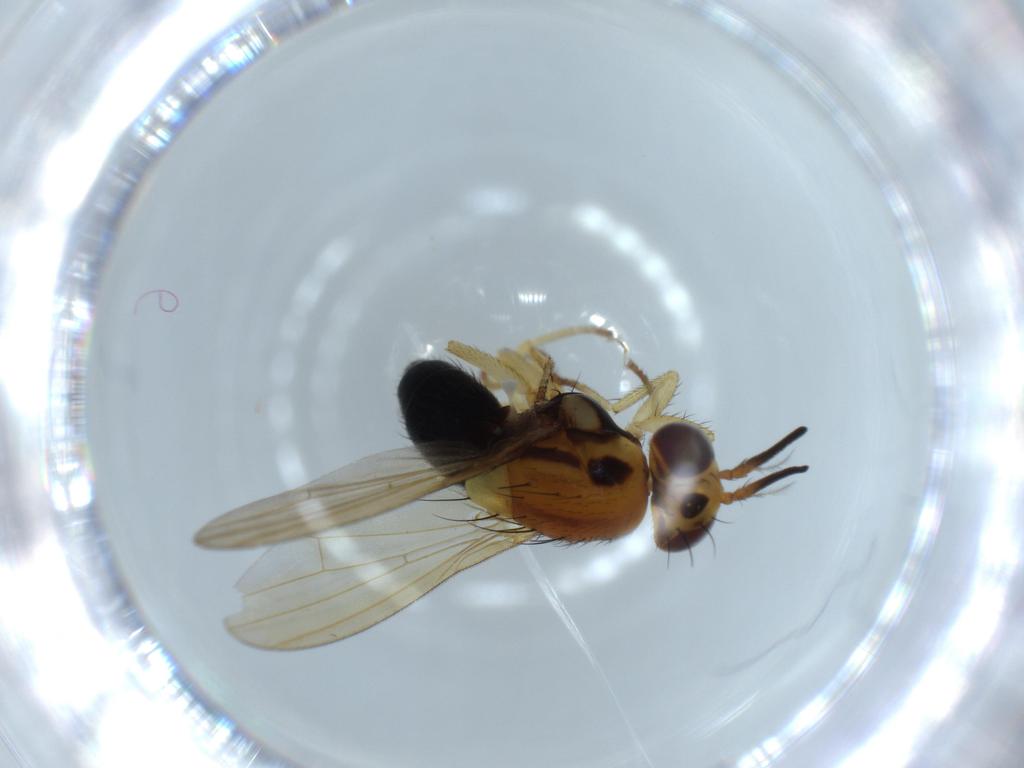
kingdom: Animalia
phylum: Arthropoda
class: Insecta
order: Diptera
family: Lauxaniidae
